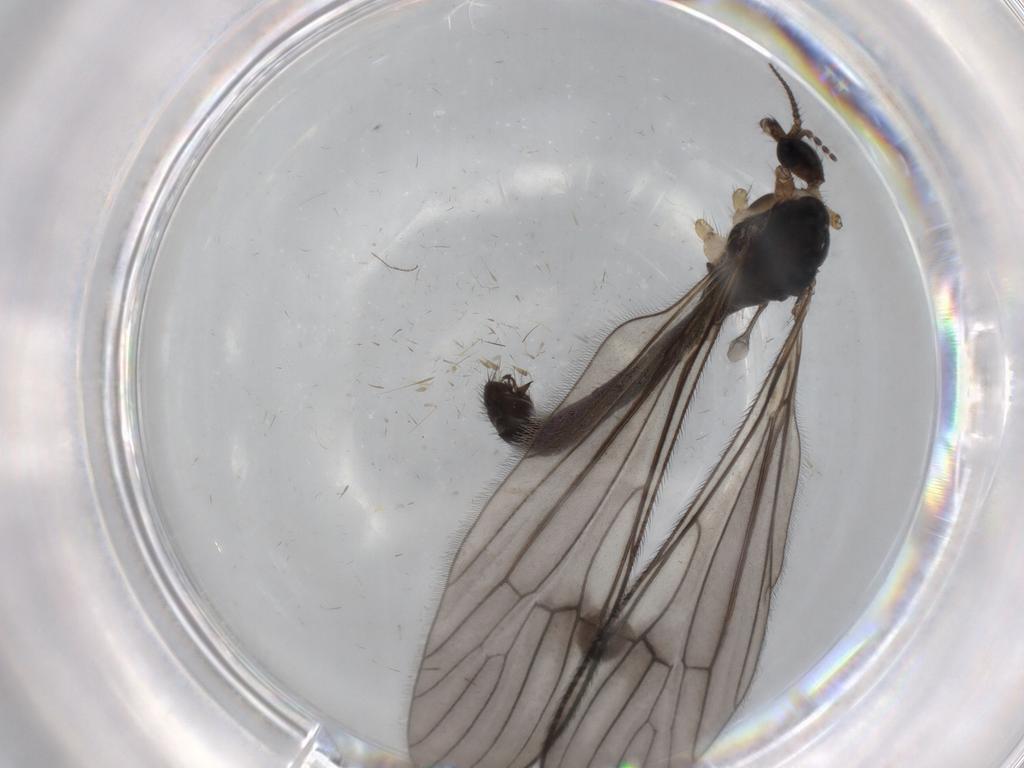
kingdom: Animalia
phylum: Arthropoda
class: Insecta
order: Diptera
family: Limoniidae
